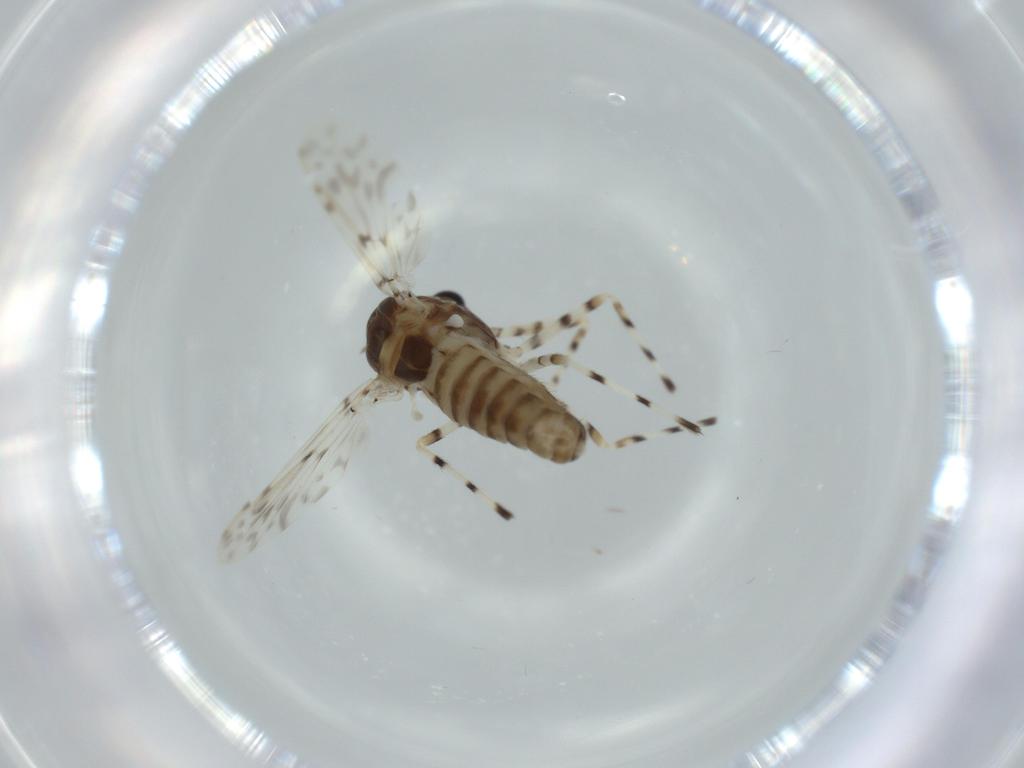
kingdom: Animalia
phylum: Arthropoda
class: Insecta
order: Diptera
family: Chironomidae
